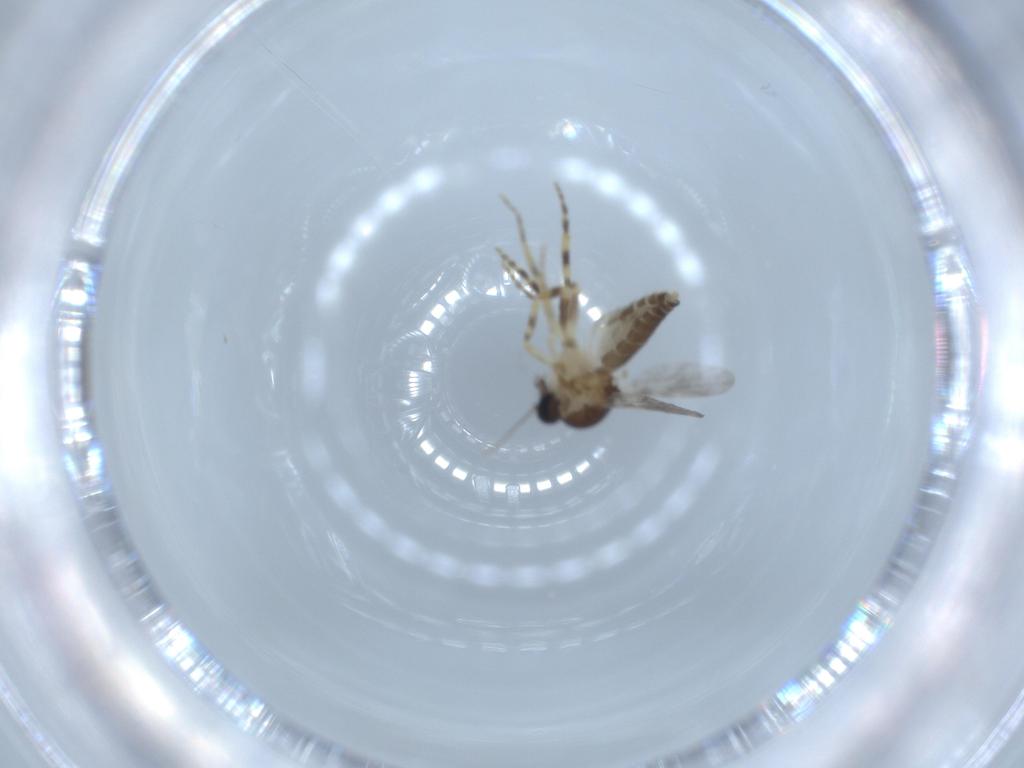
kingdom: Animalia
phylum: Arthropoda
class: Insecta
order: Diptera
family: Ceratopogonidae
